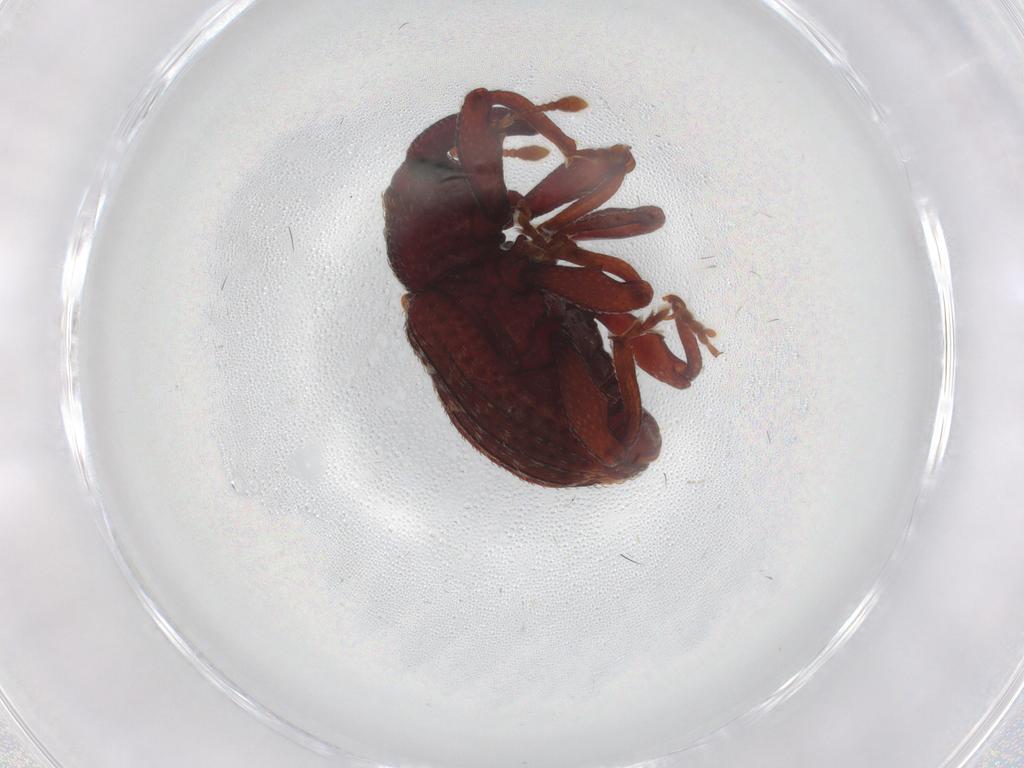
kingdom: Animalia
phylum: Arthropoda
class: Insecta
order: Coleoptera
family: Curculionidae
